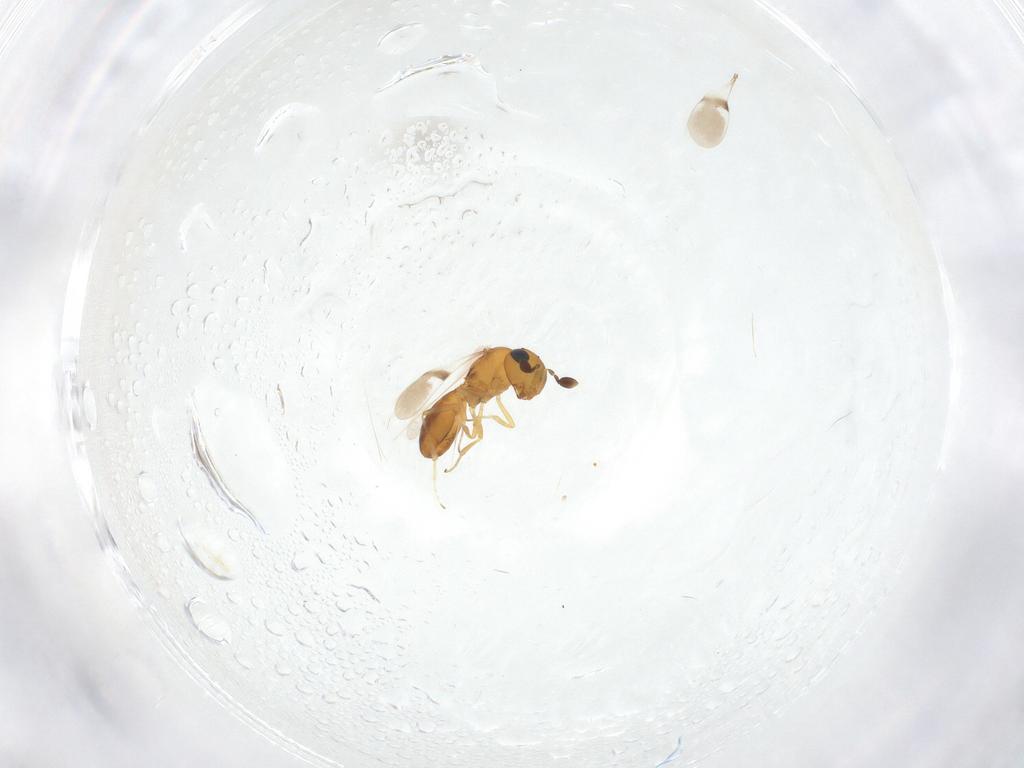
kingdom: Animalia
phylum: Arthropoda
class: Insecta
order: Hymenoptera
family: Scelionidae
